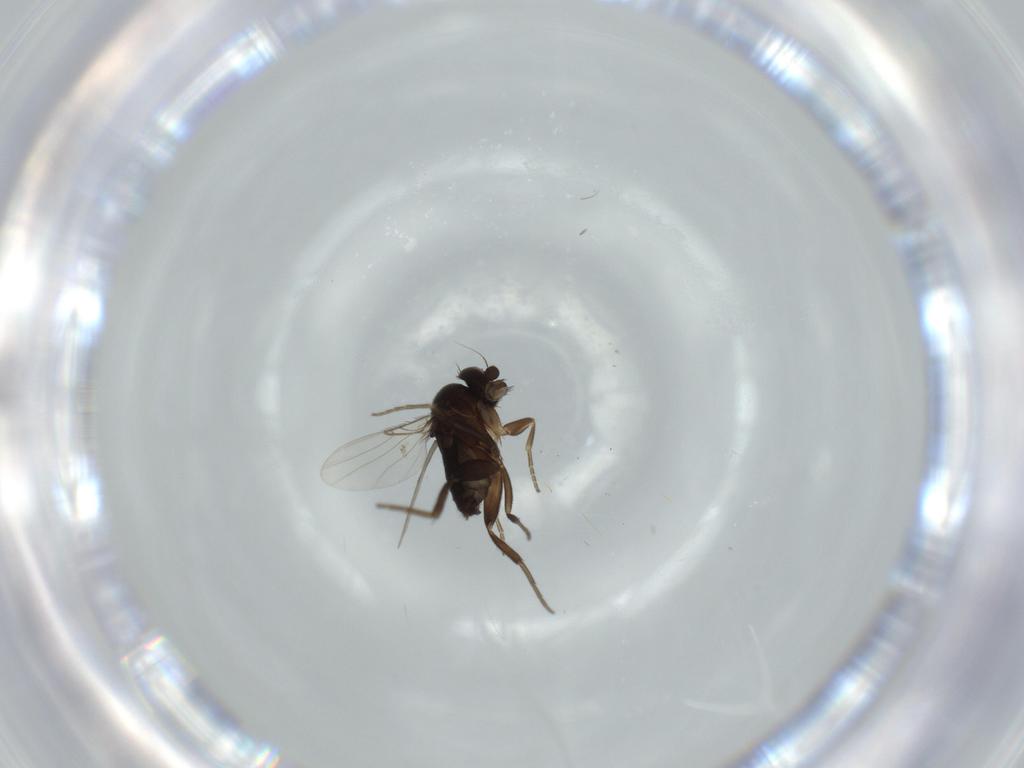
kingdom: Animalia
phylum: Arthropoda
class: Insecta
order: Diptera
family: Phoridae
